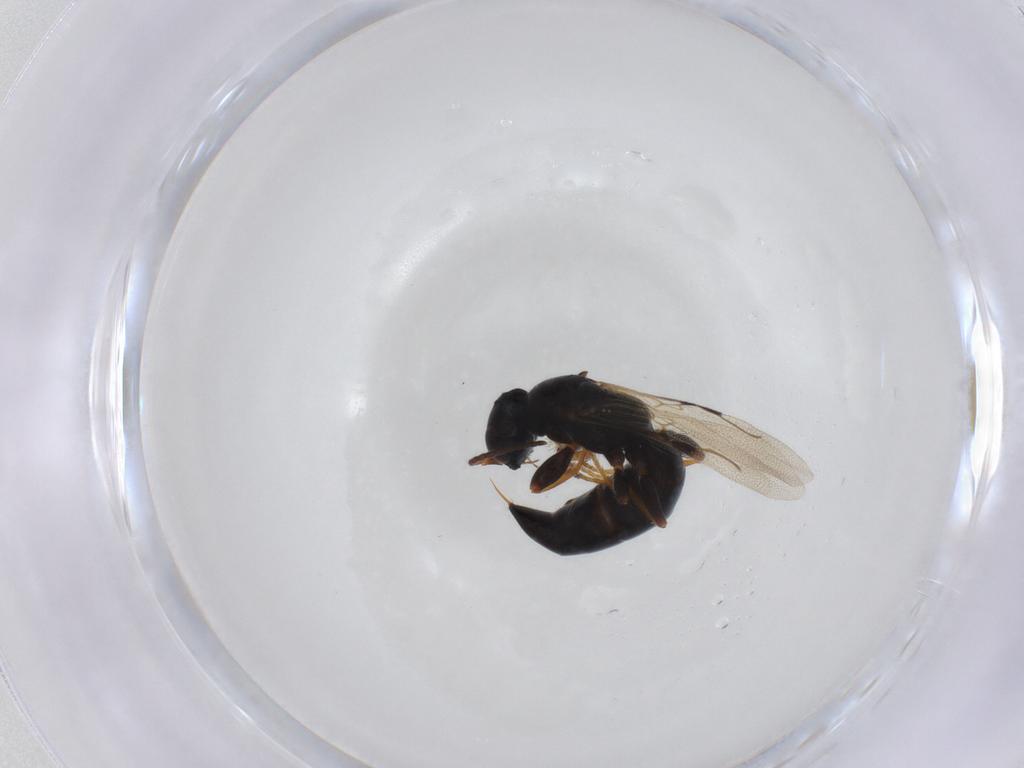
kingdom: Animalia
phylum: Arthropoda
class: Insecta
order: Hymenoptera
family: Bethylidae
